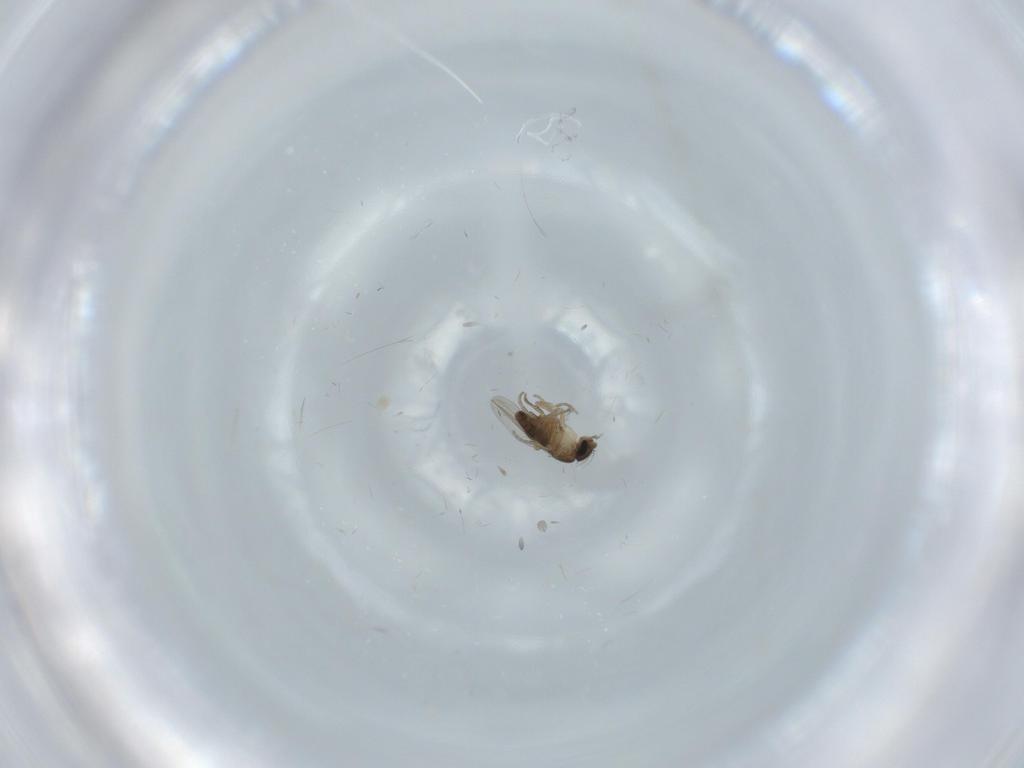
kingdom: Animalia
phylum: Arthropoda
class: Insecta
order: Diptera
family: Phoridae
